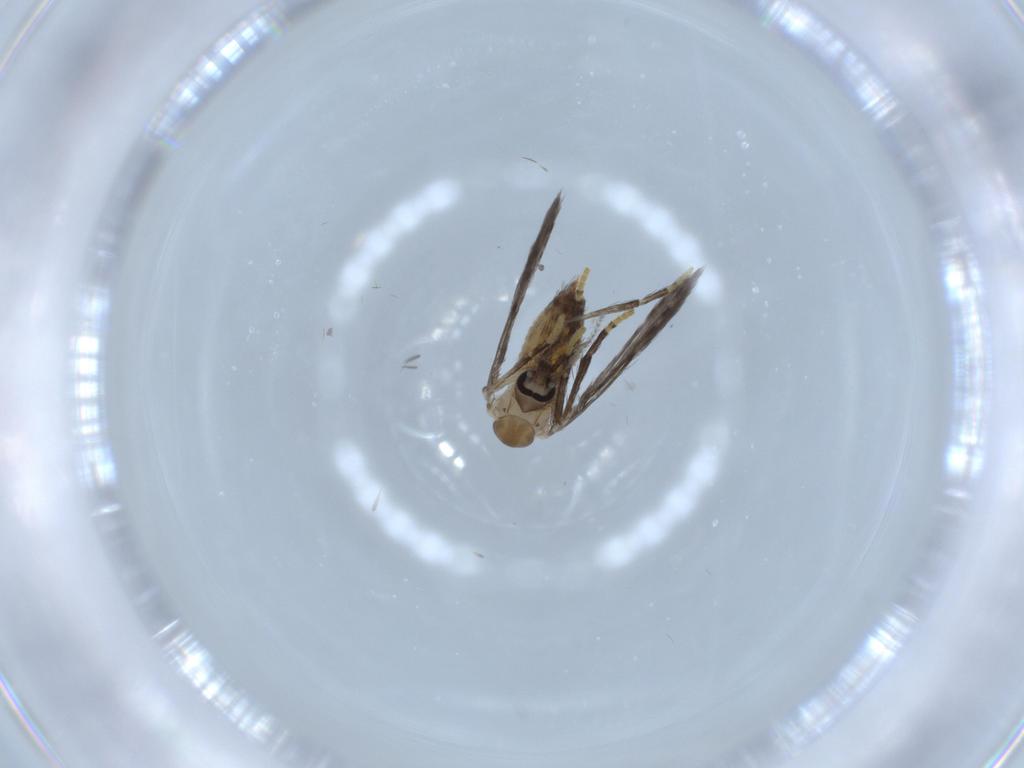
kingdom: Animalia
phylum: Arthropoda
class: Insecta
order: Diptera
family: Psychodidae
